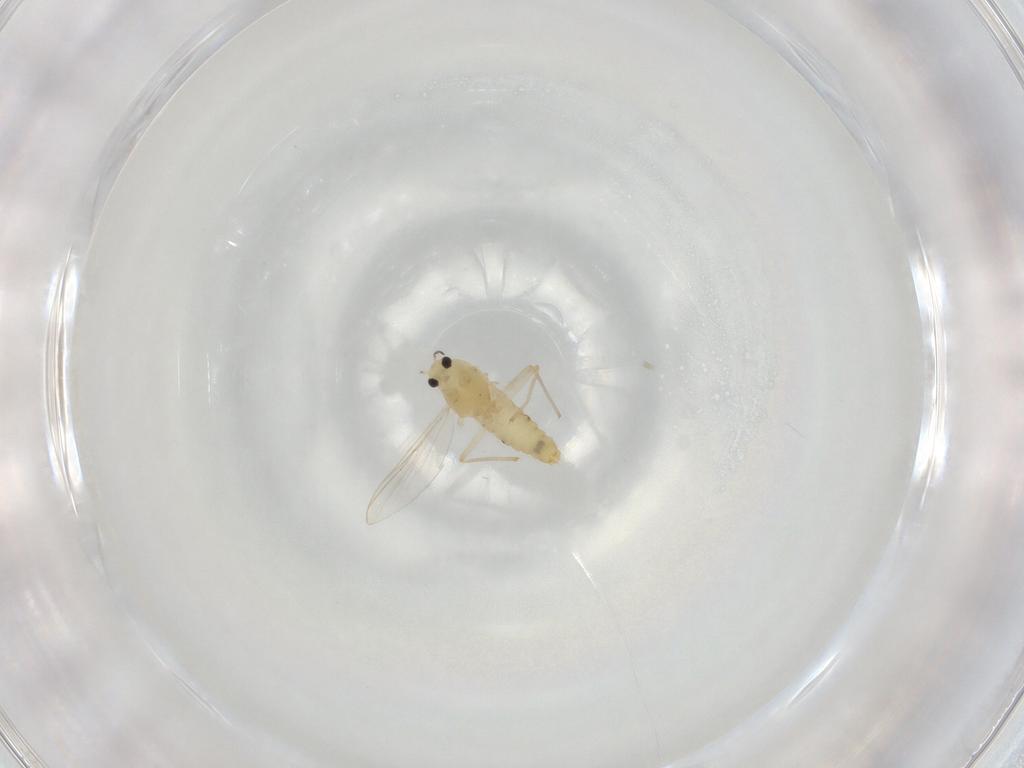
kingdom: Animalia
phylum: Arthropoda
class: Insecta
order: Diptera
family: Chironomidae
